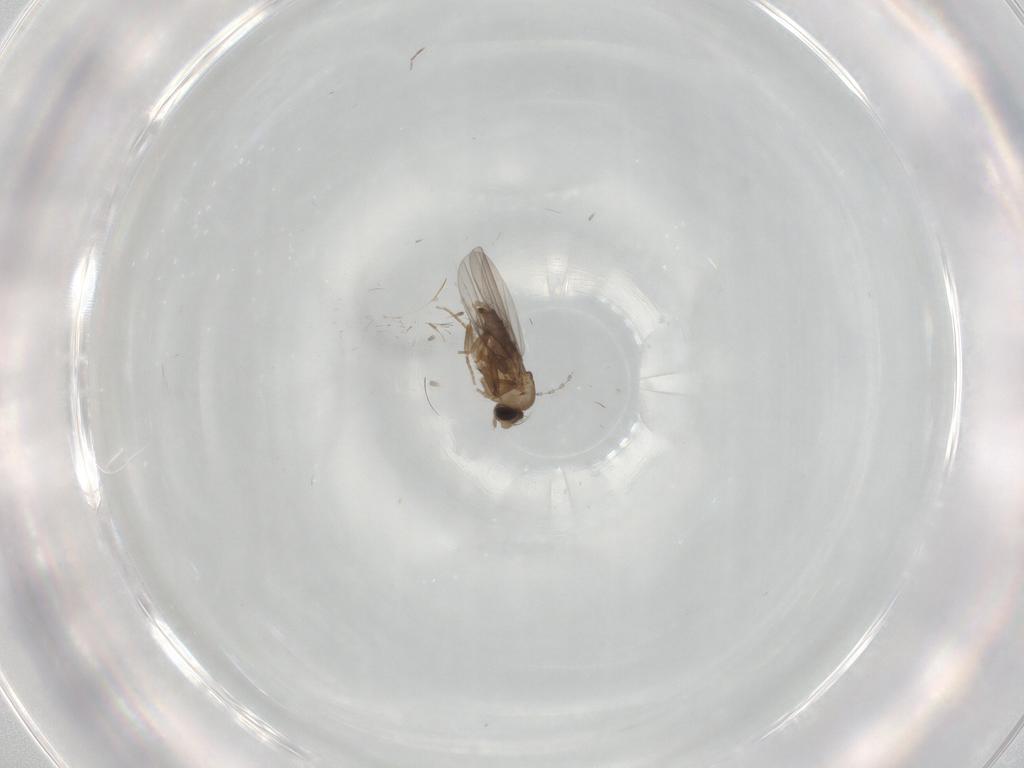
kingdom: Animalia
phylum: Arthropoda
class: Insecta
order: Diptera
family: Cecidomyiidae
